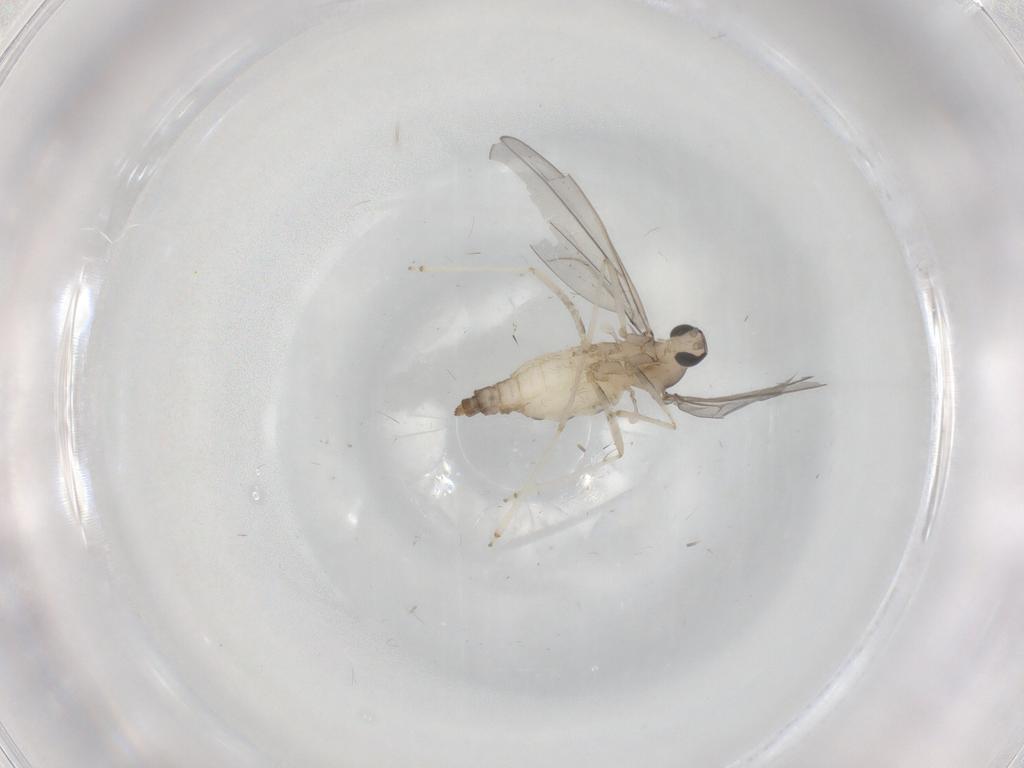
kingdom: Animalia
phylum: Arthropoda
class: Insecta
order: Diptera
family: Cecidomyiidae
